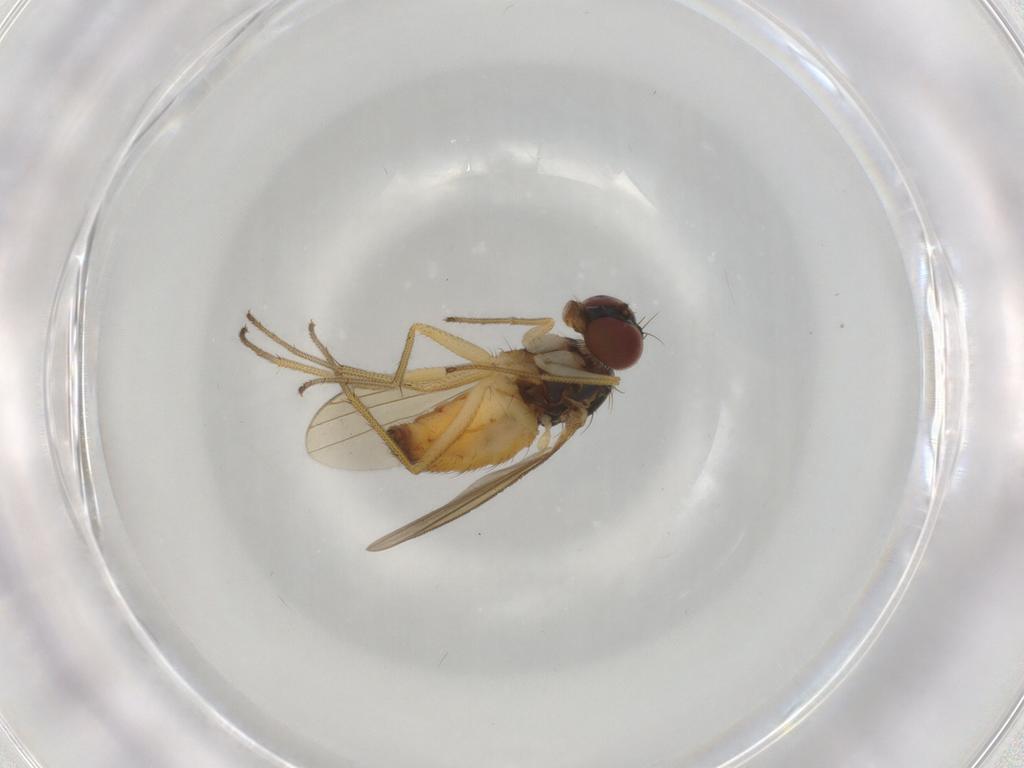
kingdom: Animalia
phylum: Arthropoda
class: Insecta
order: Diptera
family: Dolichopodidae
